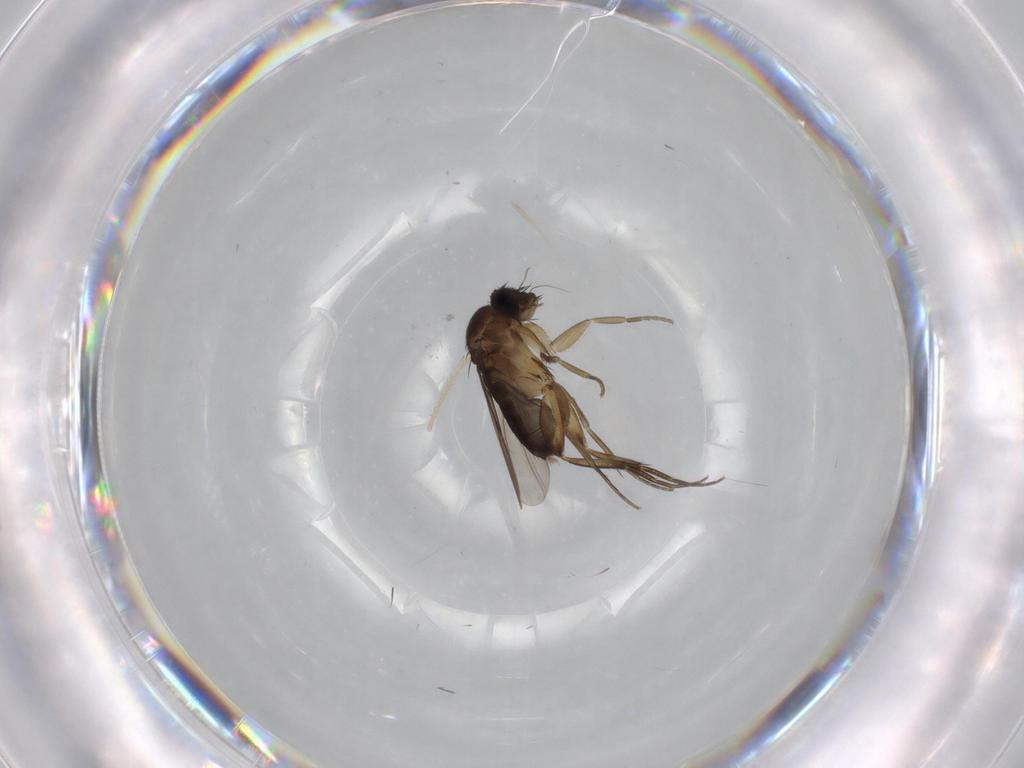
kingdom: Animalia
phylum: Arthropoda
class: Insecta
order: Diptera
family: Phoridae
